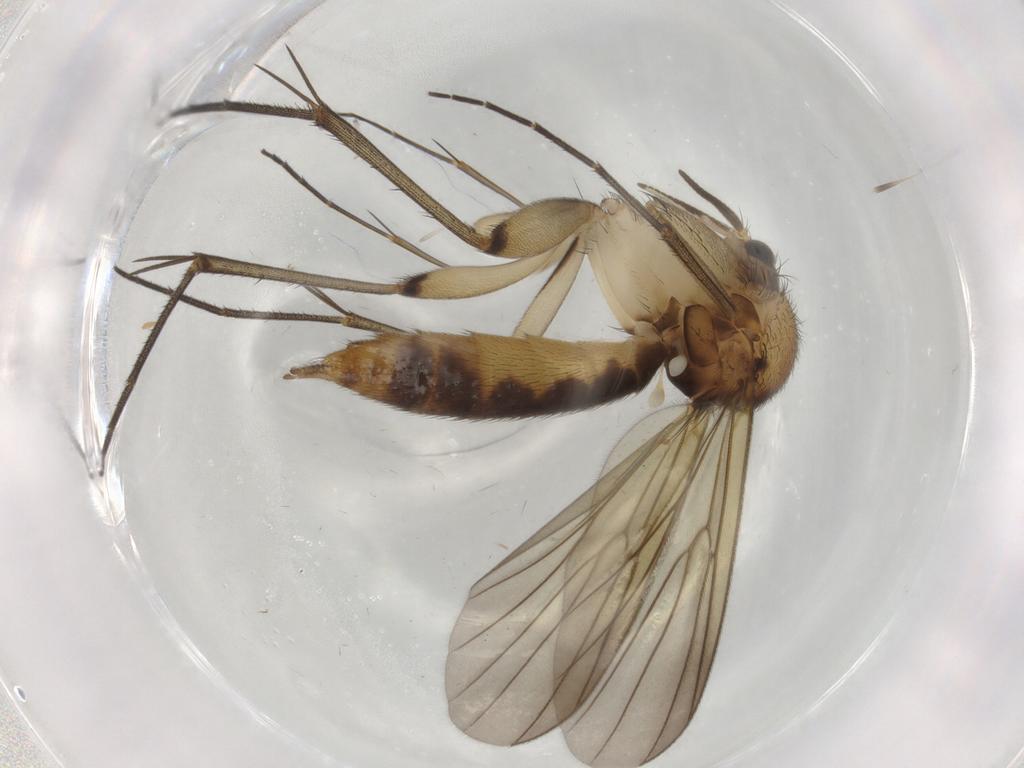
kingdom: Animalia
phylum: Arthropoda
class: Insecta
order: Diptera
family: Mycetophilidae
